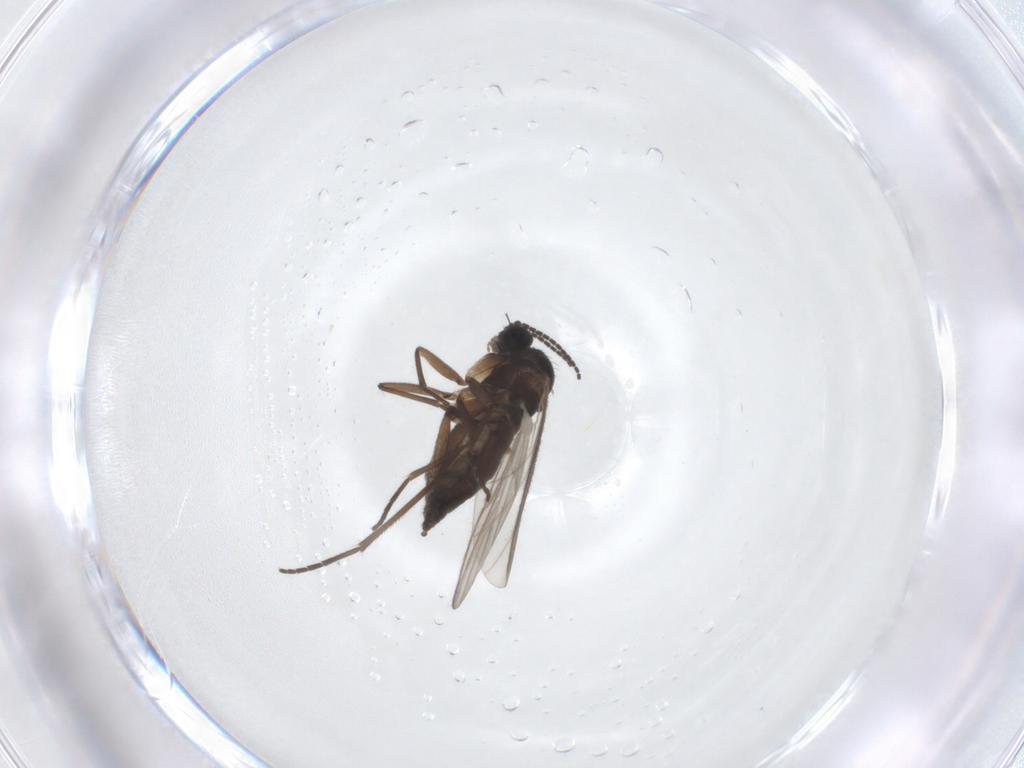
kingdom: Animalia
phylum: Arthropoda
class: Insecta
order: Diptera
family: Sciaridae
